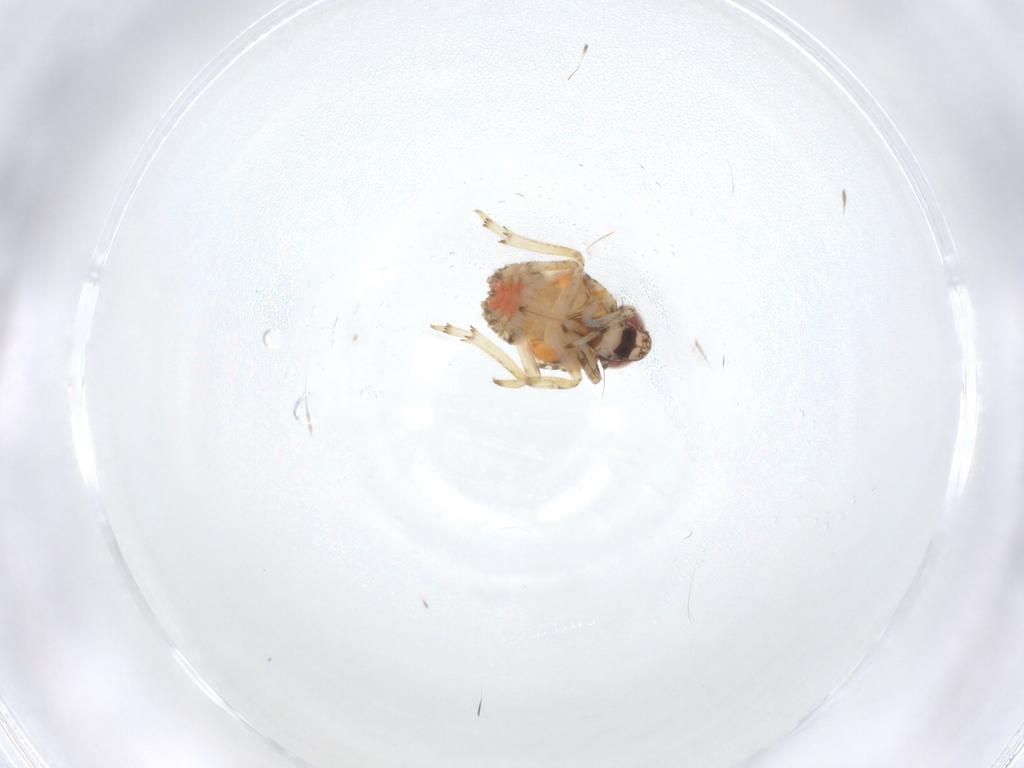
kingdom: Animalia
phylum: Arthropoda
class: Insecta
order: Hemiptera
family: Issidae
